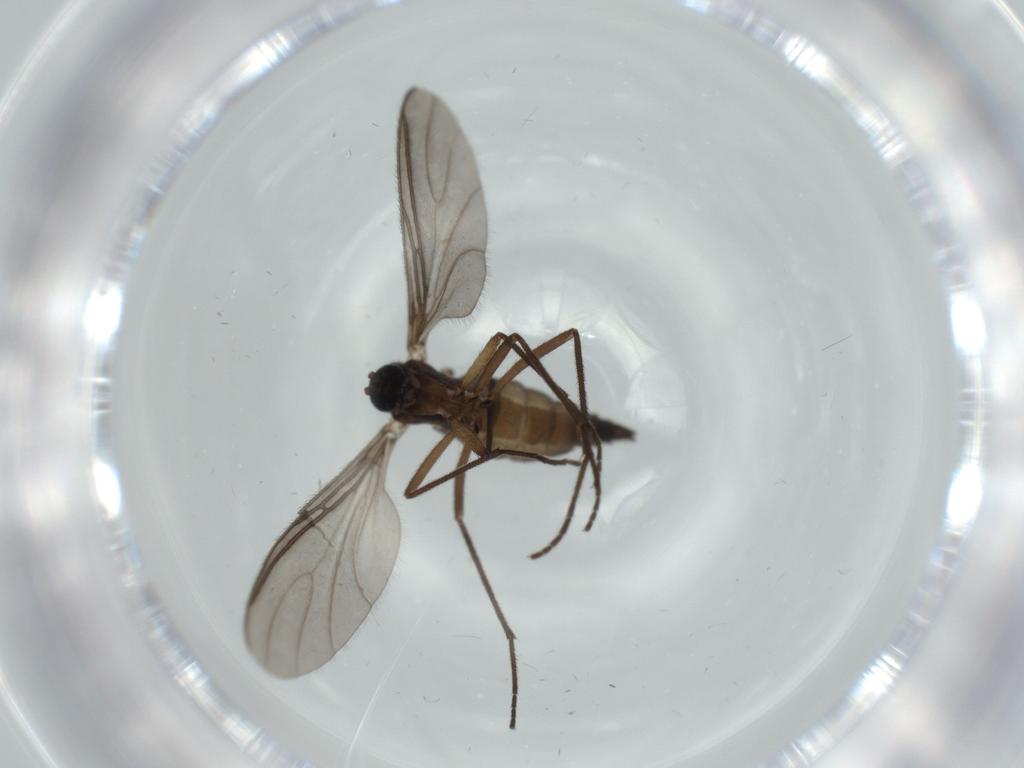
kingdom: Animalia
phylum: Arthropoda
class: Insecta
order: Diptera
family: Sciaridae
